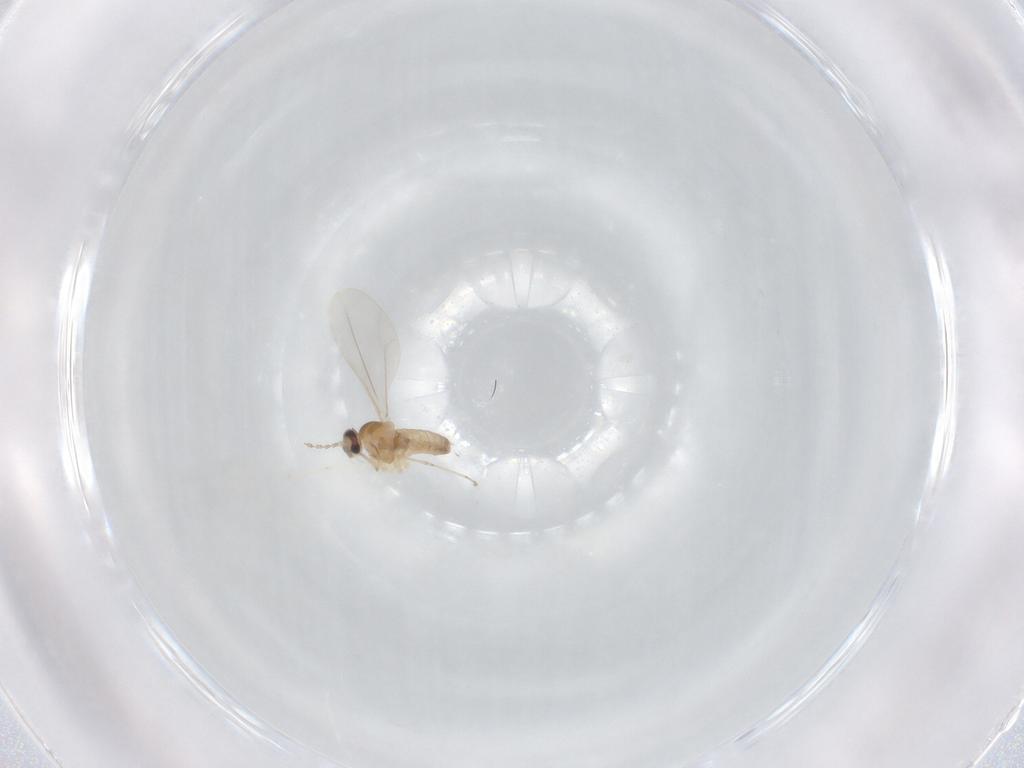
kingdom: Animalia
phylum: Arthropoda
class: Insecta
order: Diptera
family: Cecidomyiidae
